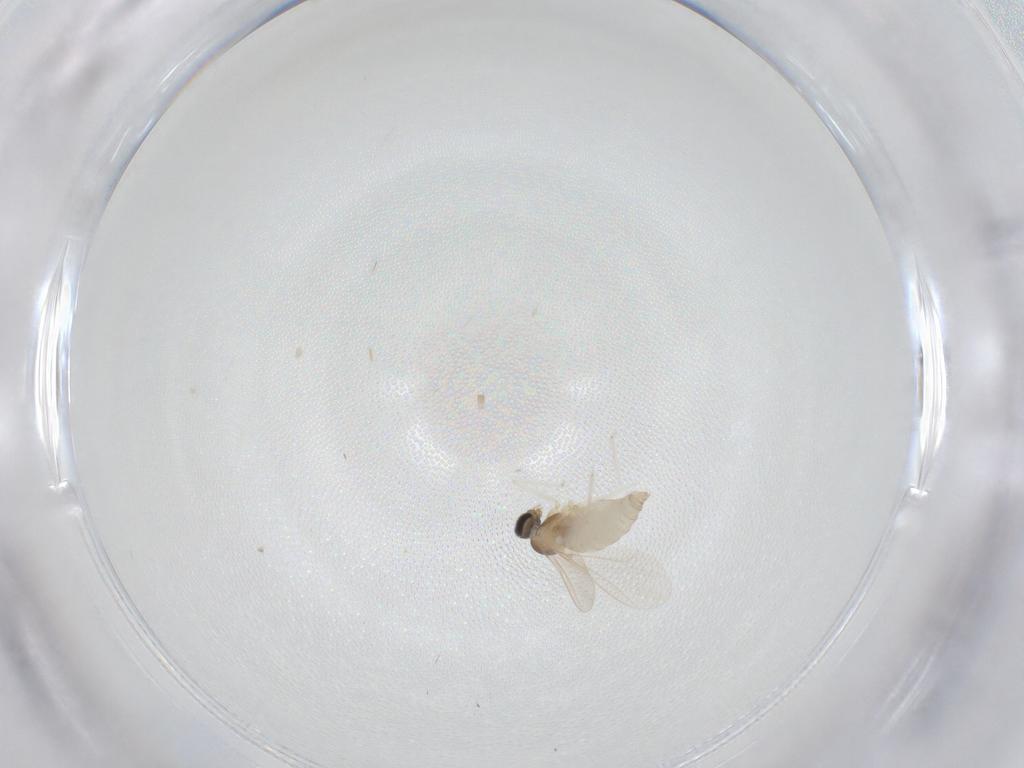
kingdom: Animalia
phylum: Arthropoda
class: Insecta
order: Diptera
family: Cecidomyiidae
